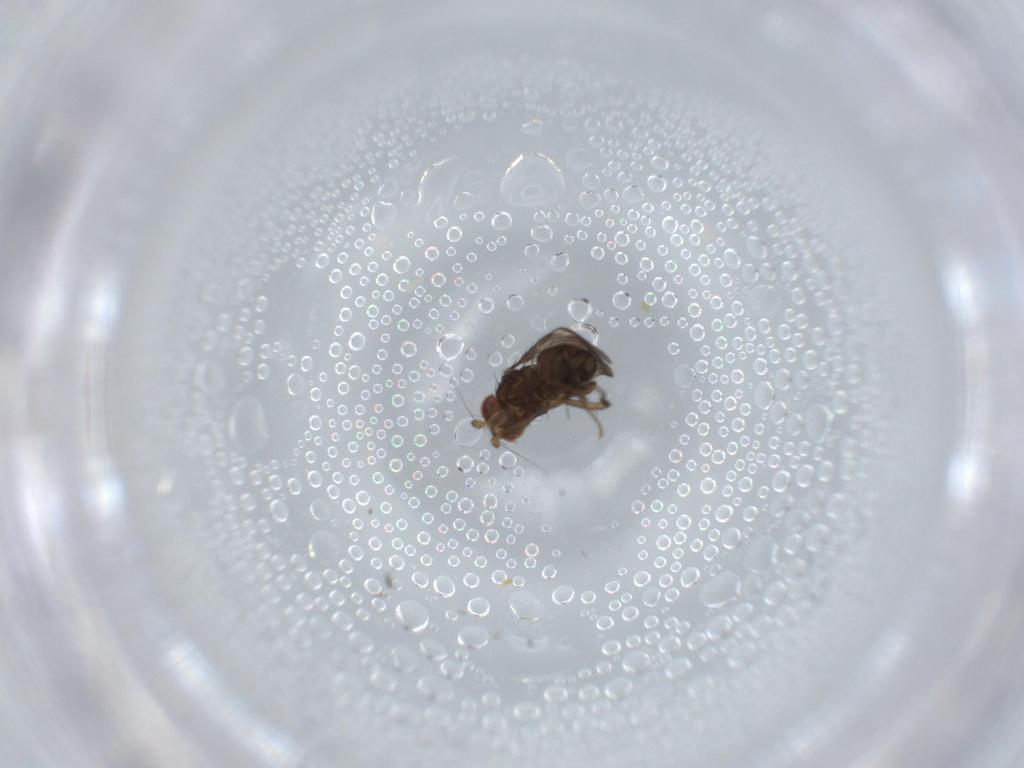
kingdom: Animalia
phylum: Arthropoda
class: Insecta
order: Diptera
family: Sphaeroceridae
